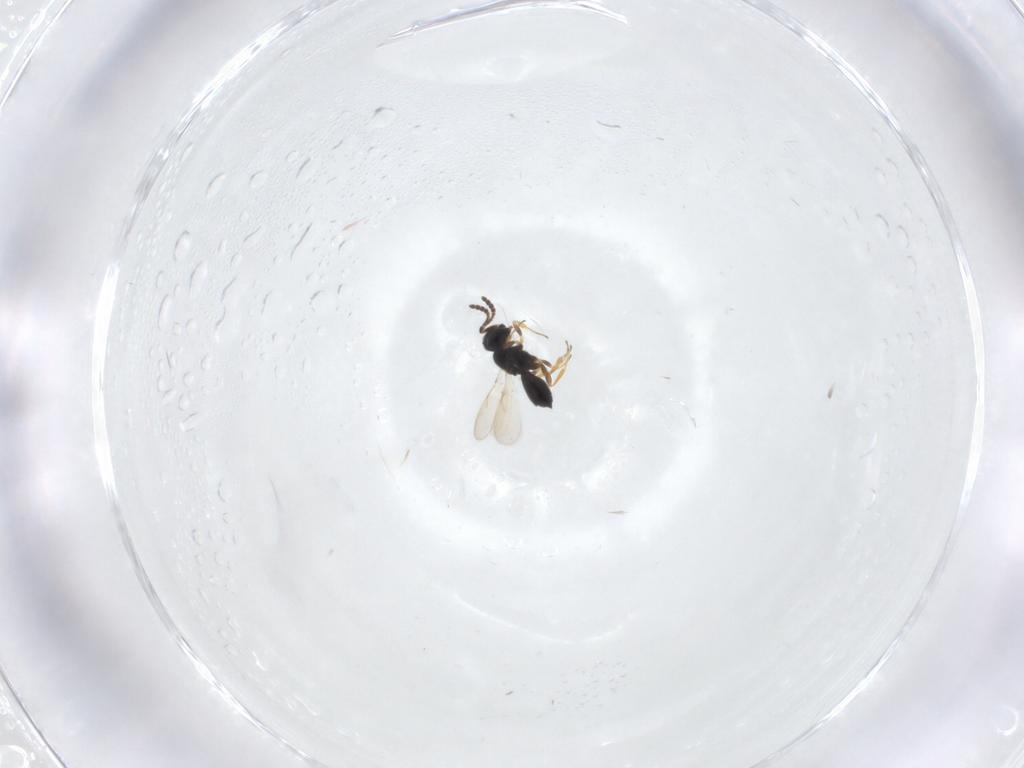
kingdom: Animalia
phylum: Arthropoda
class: Insecta
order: Hymenoptera
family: Scelionidae
